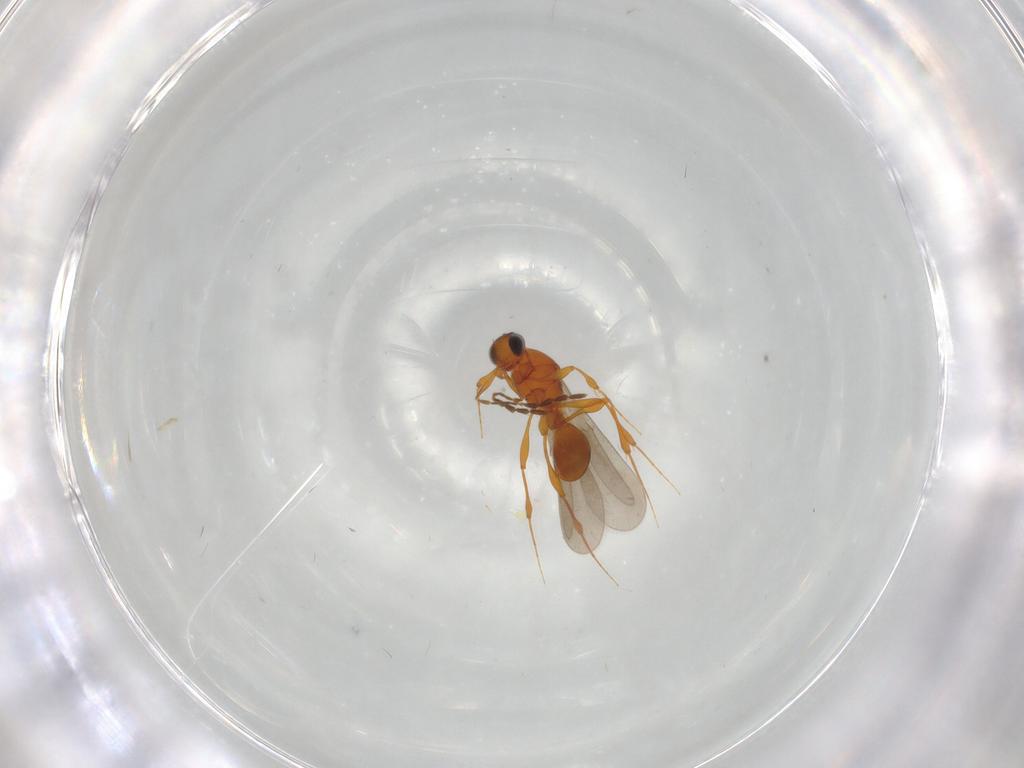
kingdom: Animalia
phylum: Arthropoda
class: Insecta
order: Hymenoptera
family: Platygastridae
